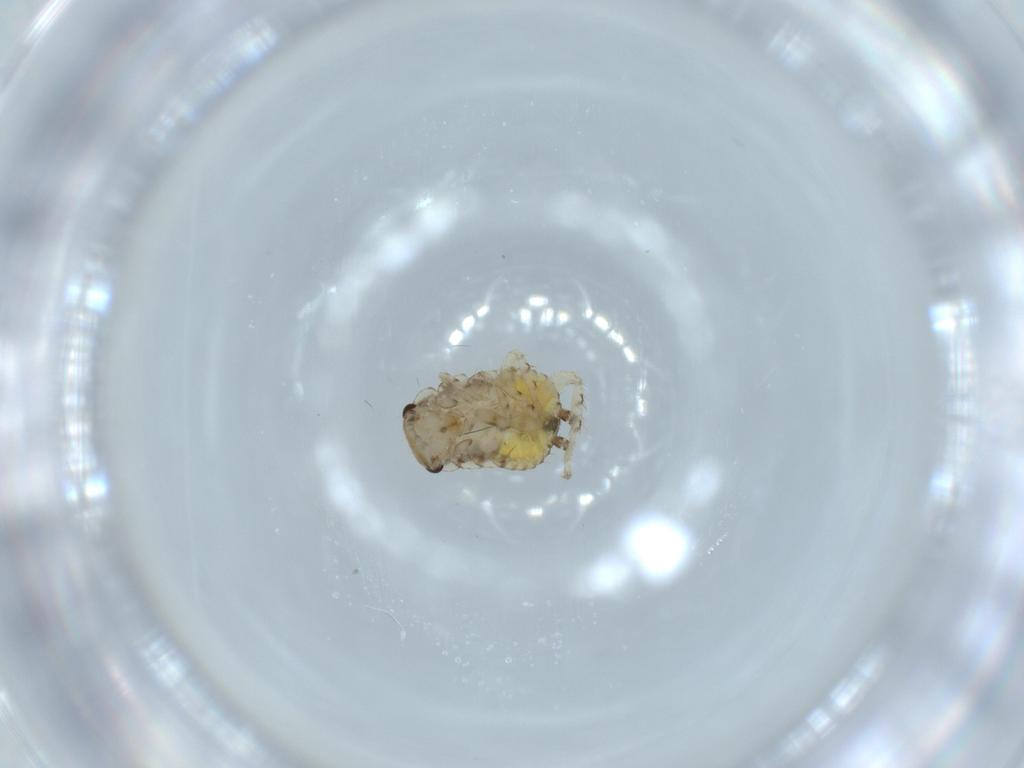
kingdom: Animalia
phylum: Arthropoda
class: Insecta
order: Blattodea
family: Ectobiidae
